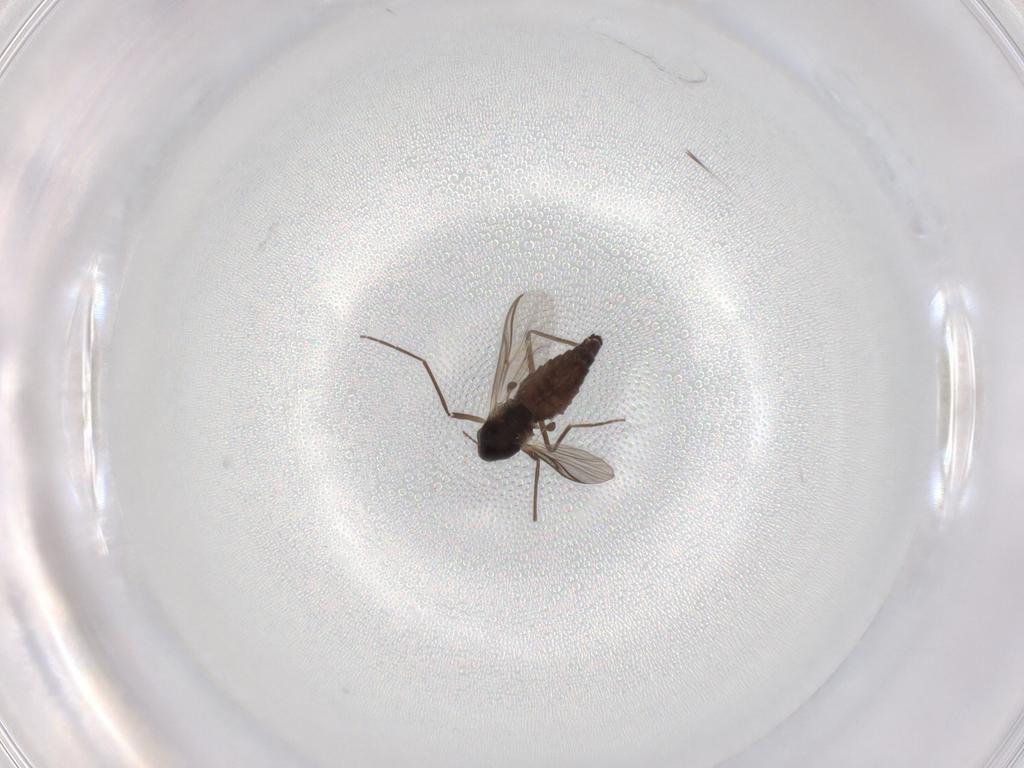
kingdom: Animalia
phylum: Arthropoda
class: Insecta
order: Diptera
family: Chironomidae
